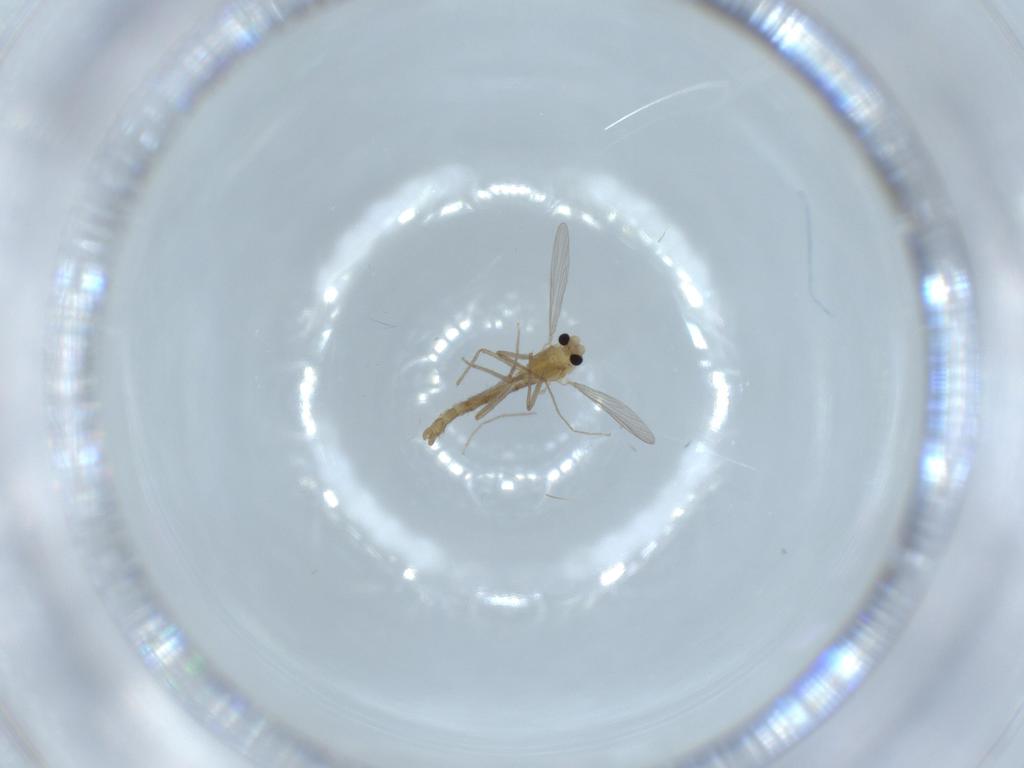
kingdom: Animalia
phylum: Arthropoda
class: Insecta
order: Diptera
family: Chironomidae
